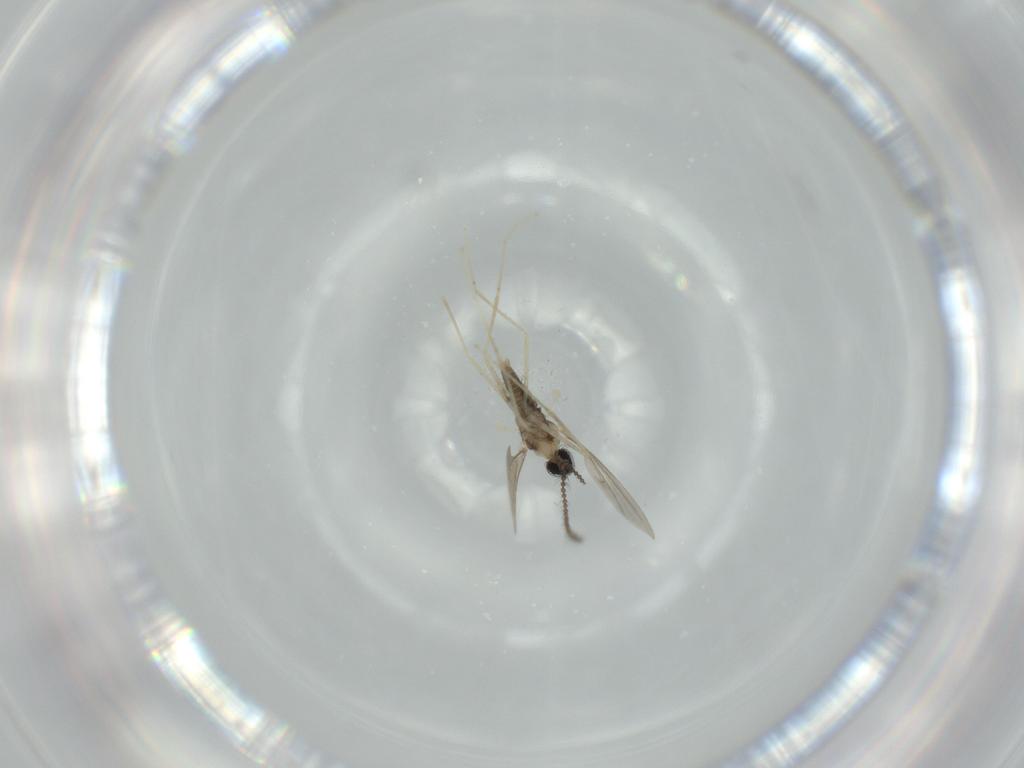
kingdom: Animalia
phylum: Arthropoda
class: Insecta
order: Diptera
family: Cecidomyiidae
